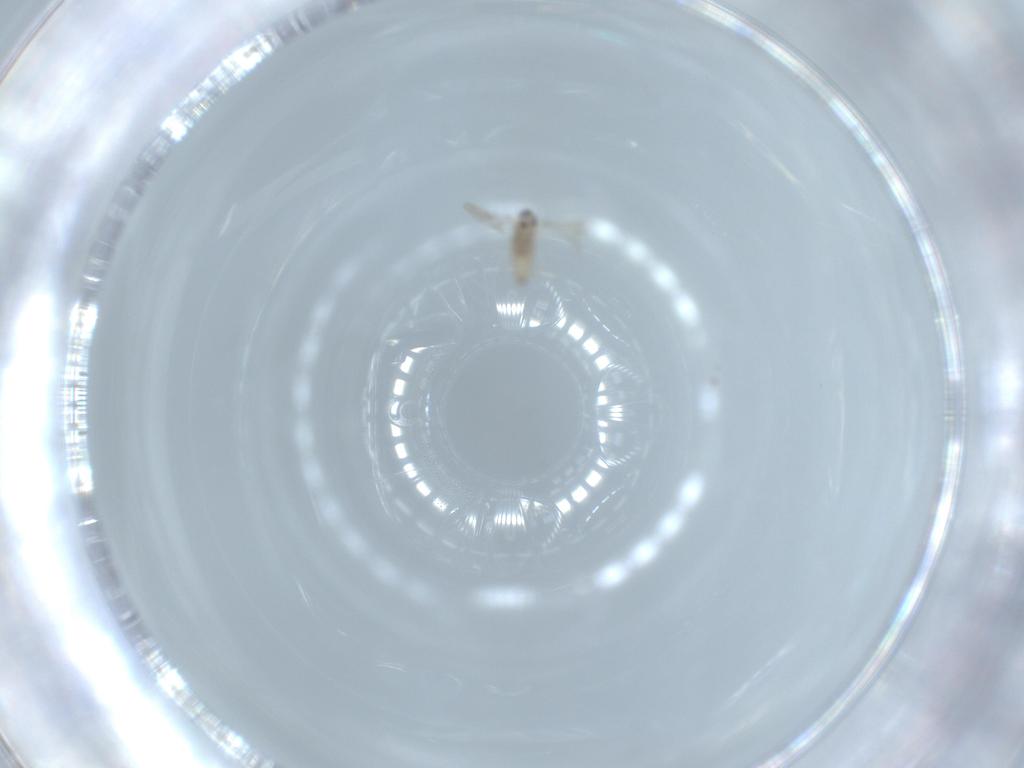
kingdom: Animalia
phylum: Arthropoda
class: Insecta
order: Diptera
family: Cecidomyiidae
